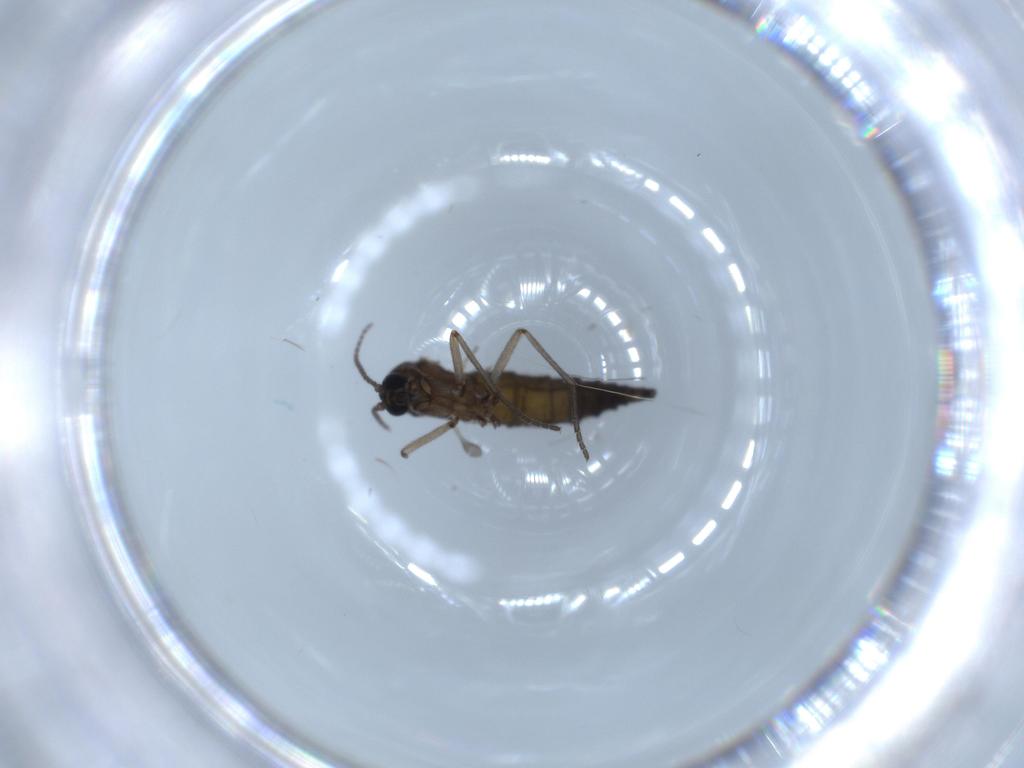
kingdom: Animalia
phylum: Arthropoda
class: Insecta
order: Diptera
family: Sciaridae
